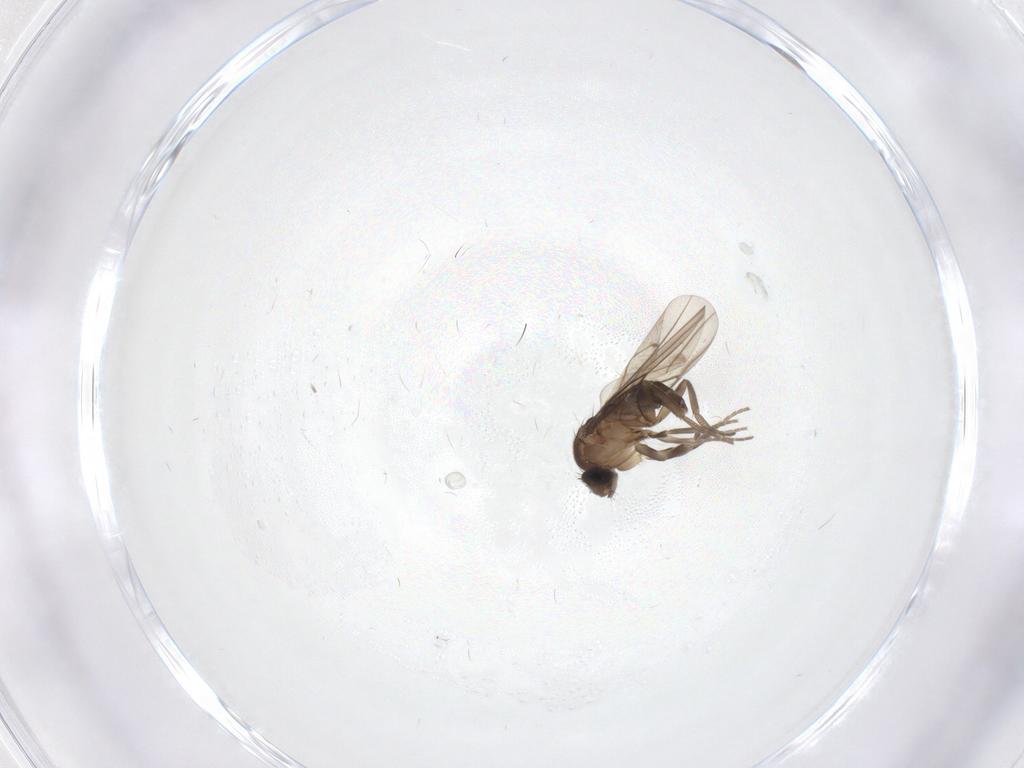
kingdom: Animalia
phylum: Arthropoda
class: Insecta
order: Diptera
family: Phoridae
